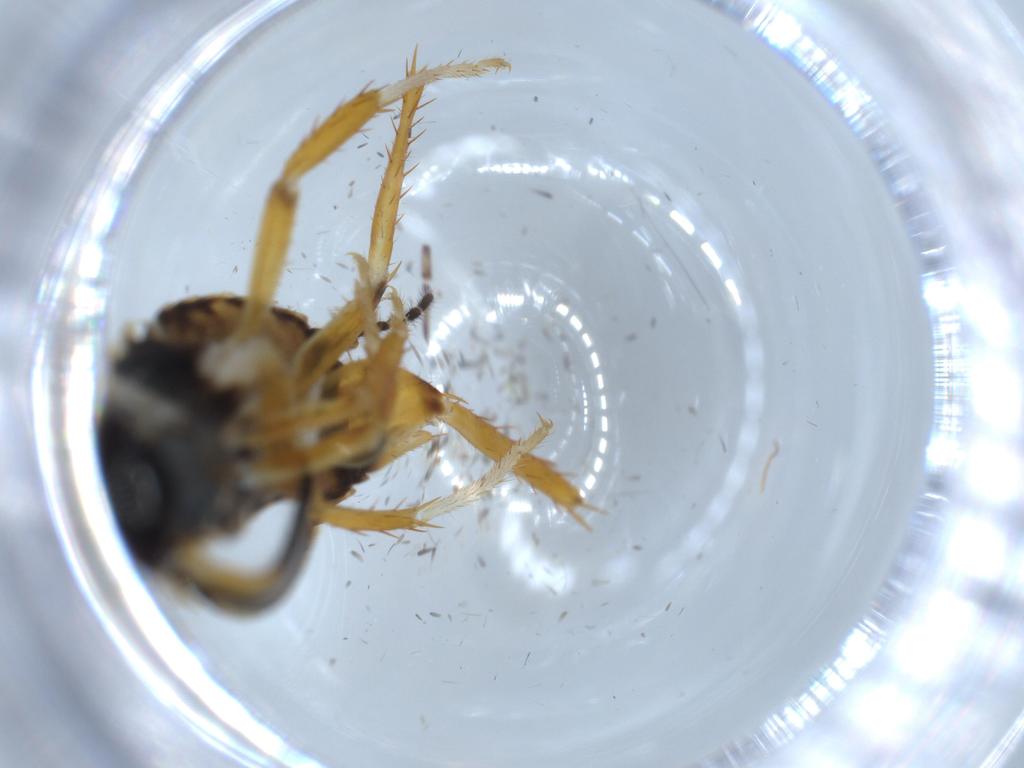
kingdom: Animalia
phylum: Arthropoda
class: Insecta
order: Blattodea
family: Ectobiidae
